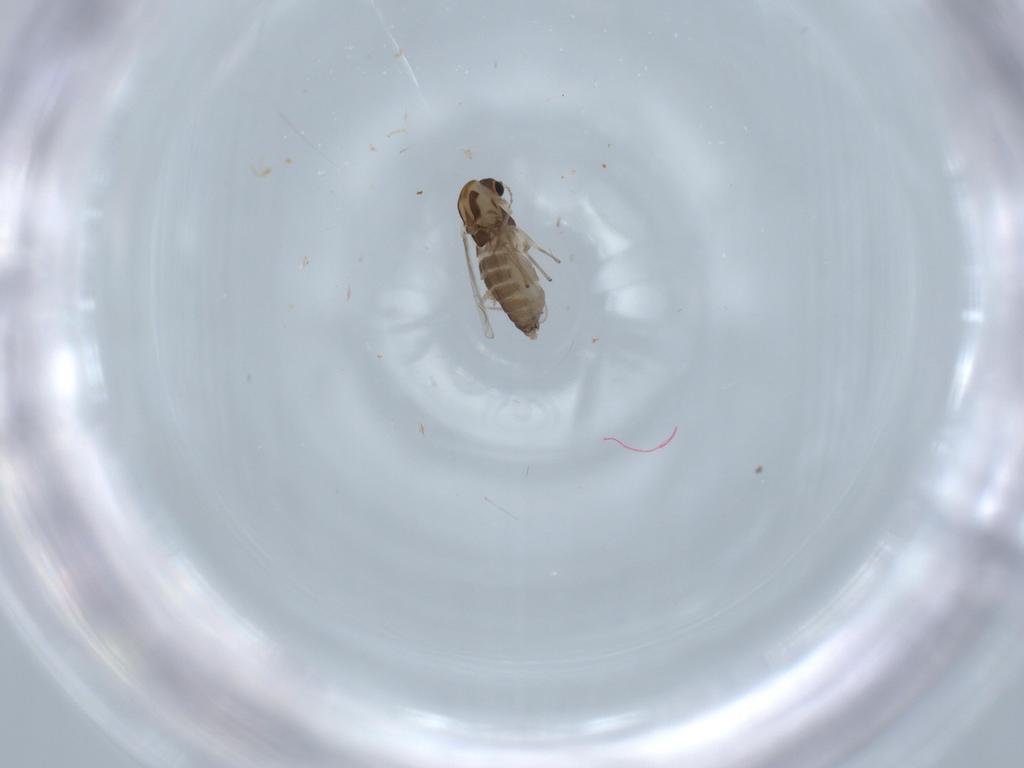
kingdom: Animalia
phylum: Arthropoda
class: Insecta
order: Diptera
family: Chironomidae
